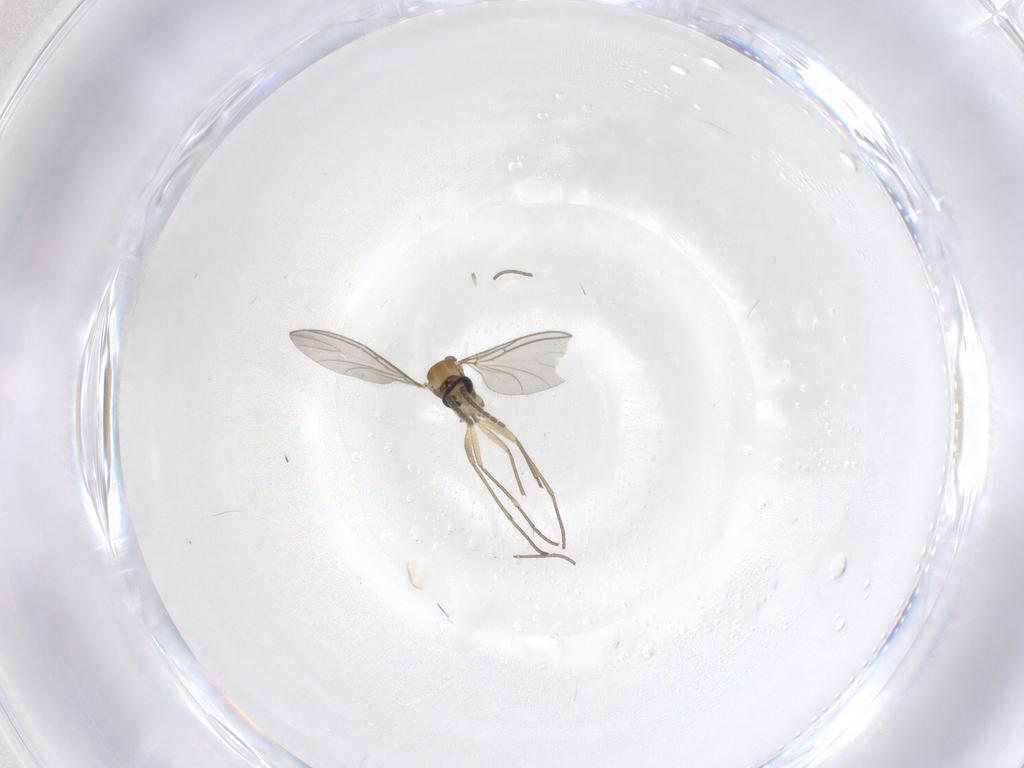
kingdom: Animalia
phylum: Arthropoda
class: Insecta
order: Diptera
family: Sciaridae
